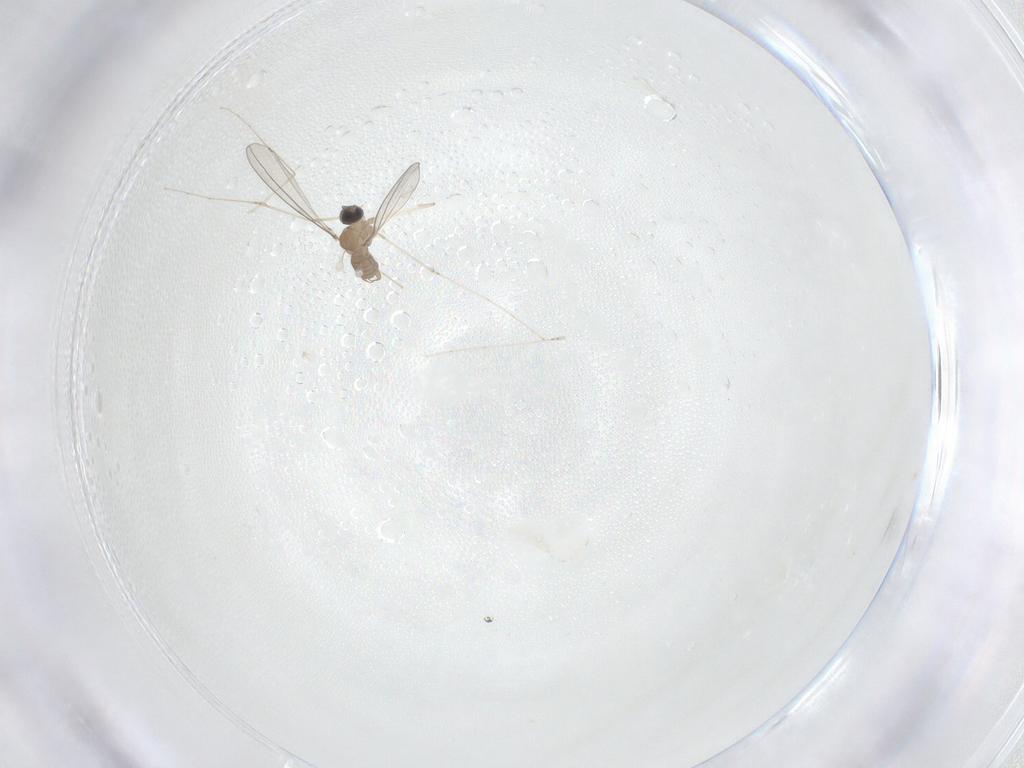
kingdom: Animalia
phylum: Arthropoda
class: Insecta
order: Diptera
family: Cecidomyiidae
